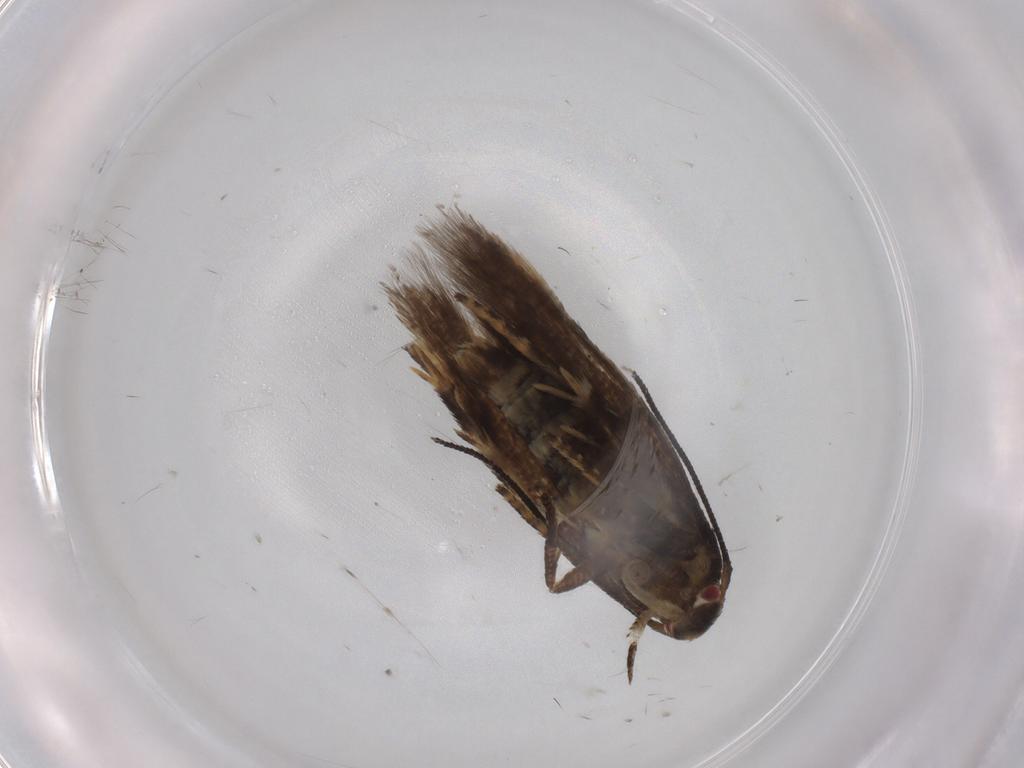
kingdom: Animalia
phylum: Arthropoda
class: Insecta
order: Lepidoptera
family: Momphidae
